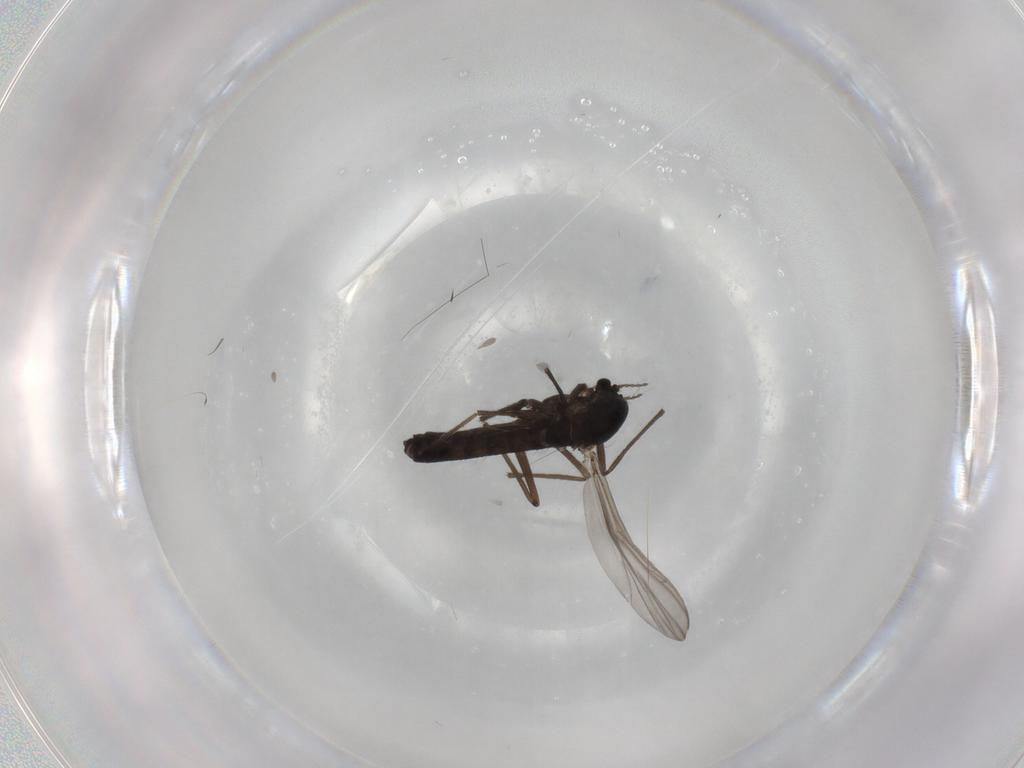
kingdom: Animalia
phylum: Arthropoda
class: Insecta
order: Diptera
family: Chironomidae
